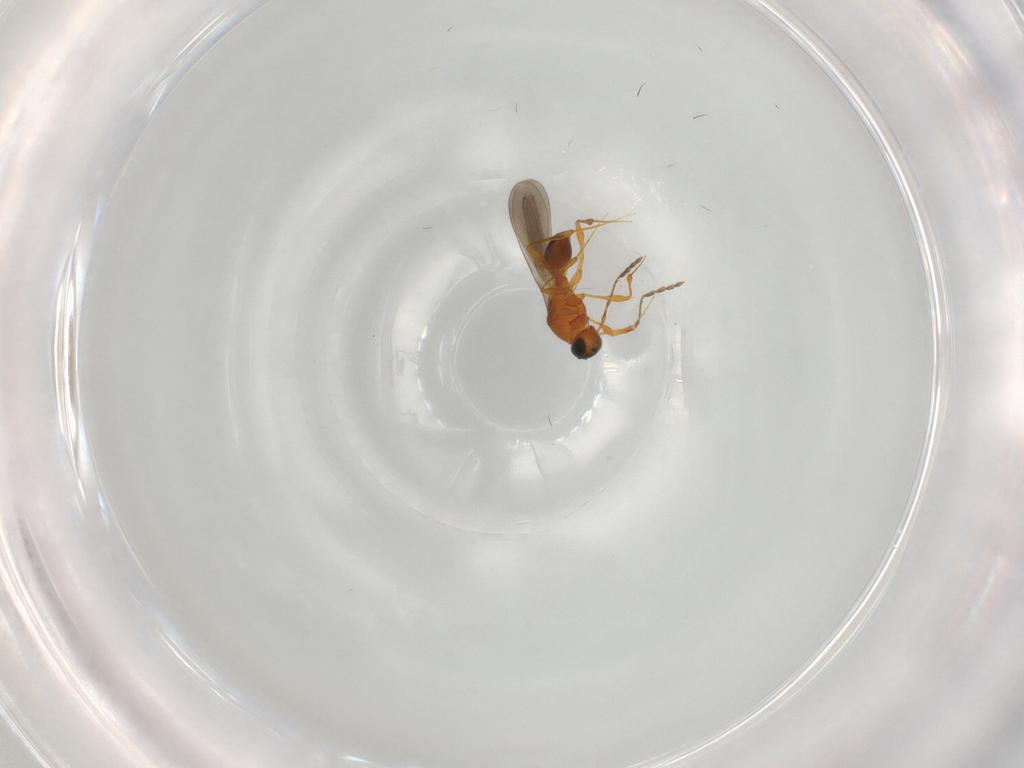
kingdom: Animalia
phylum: Arthropoda
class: Insecta
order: Hymenoptera
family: Platygastridae
